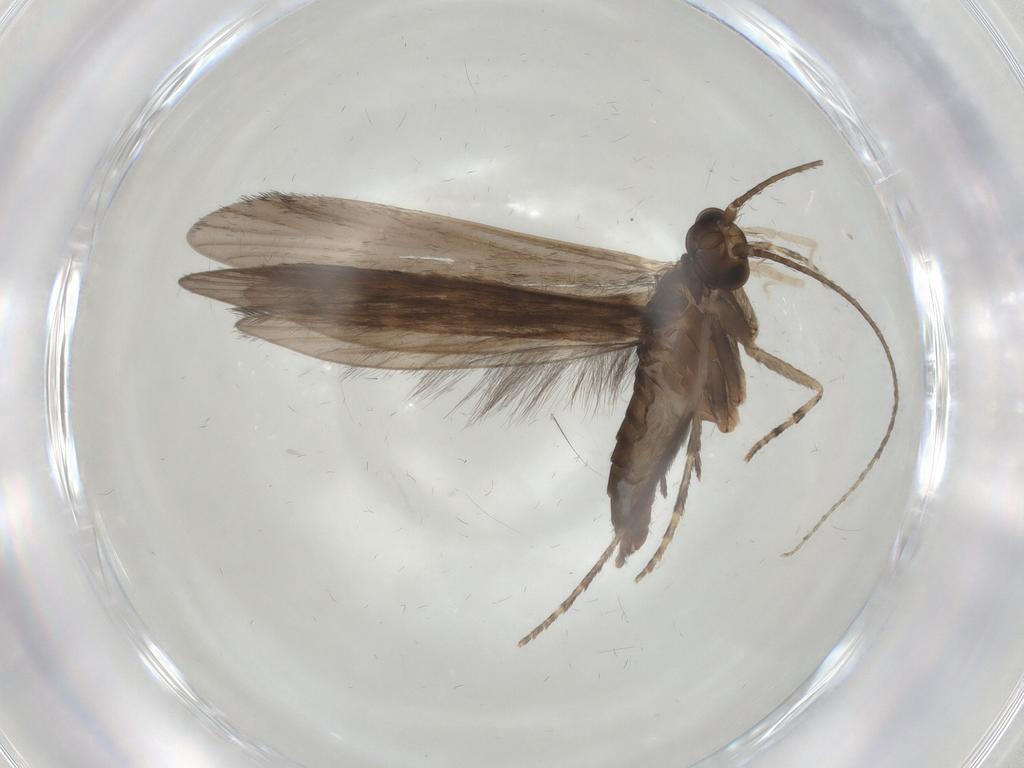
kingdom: Animalia
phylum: Arthropoda
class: Insecta
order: Trichoptera
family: Xiphocentronidae
